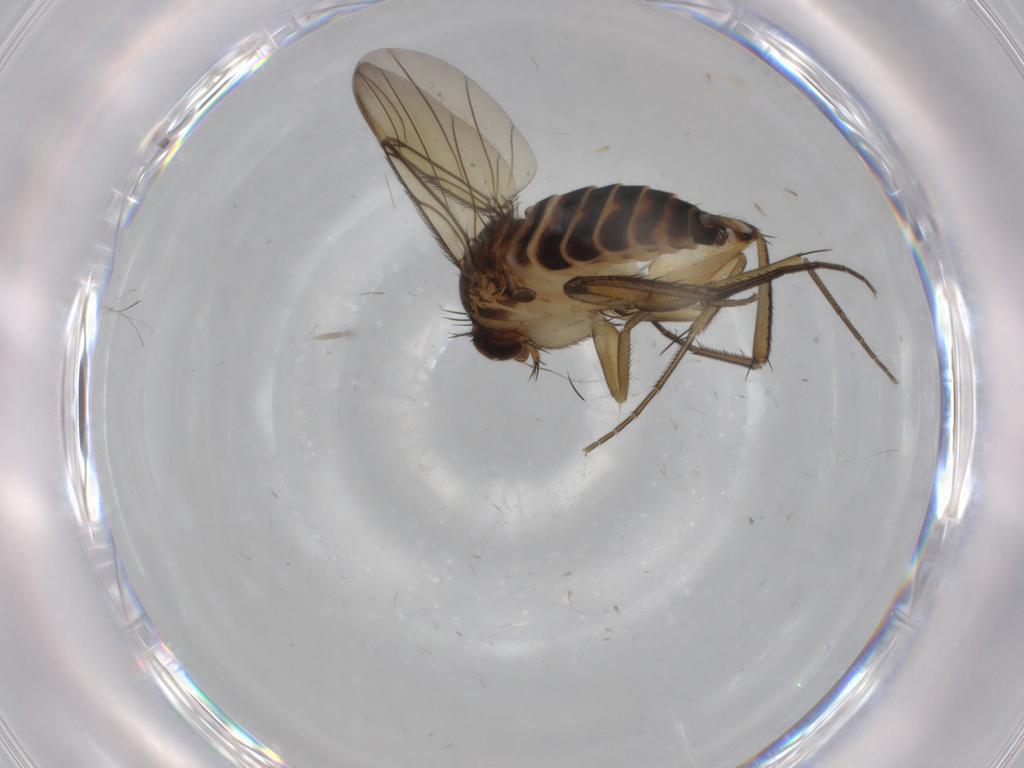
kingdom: Animalia
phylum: Arthropoda
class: Insecta
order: Diptera
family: Phoridae
